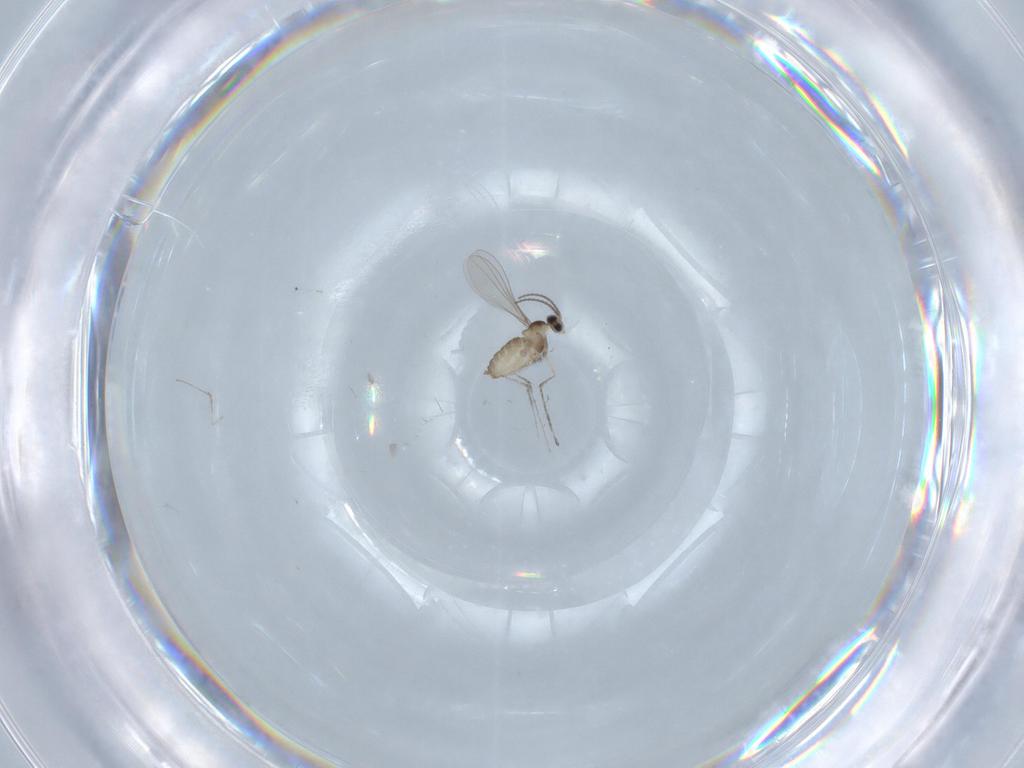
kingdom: Animalia
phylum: Arthropoda
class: Insecta
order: Diptera
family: Cecidomyiidae
